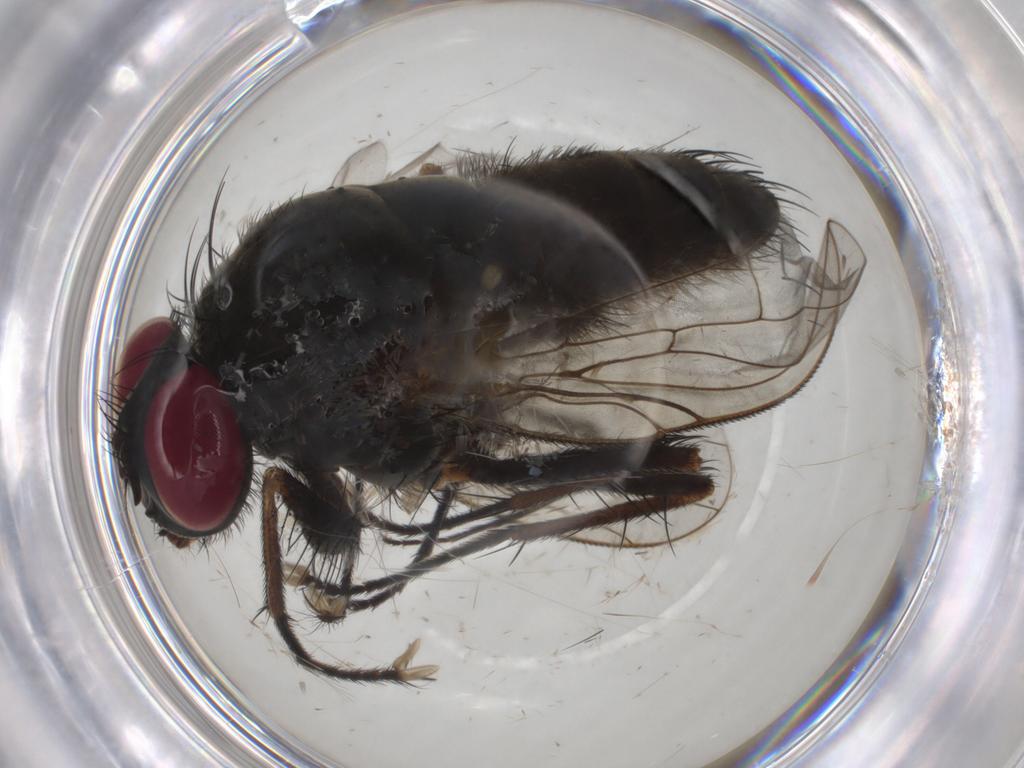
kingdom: Animalia
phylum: Arthropoda
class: Insecta
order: Diptera
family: Muscidae
